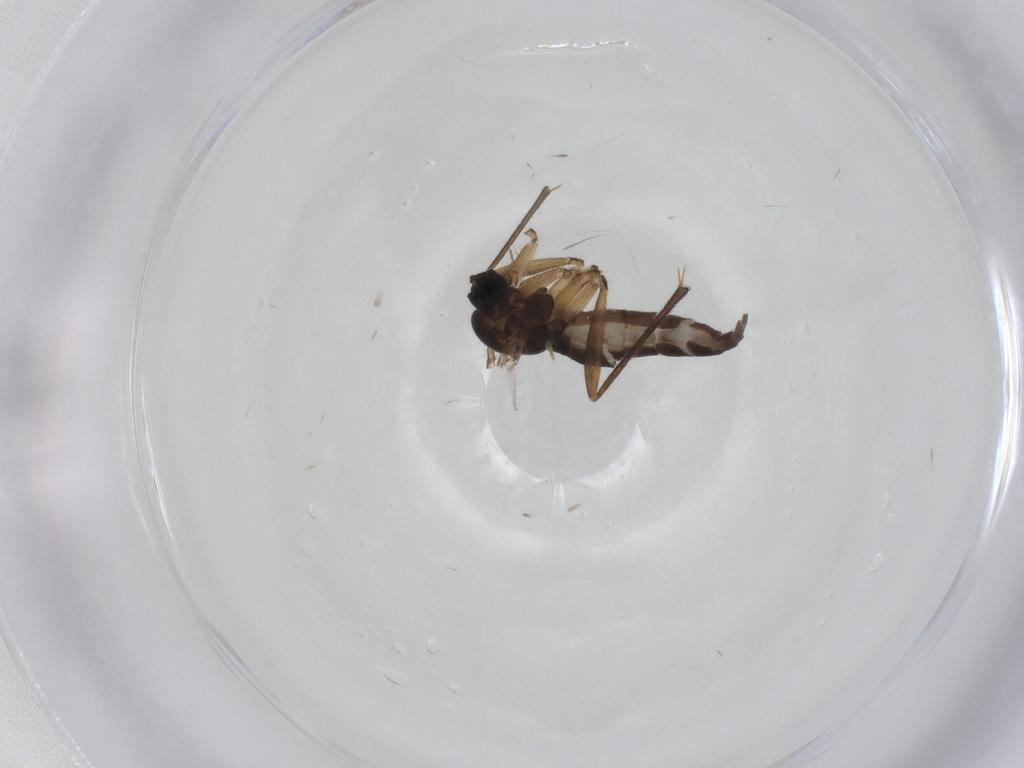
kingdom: Animalia
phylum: Arthropoda
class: Insecta
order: Diptera
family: Sciaridae
